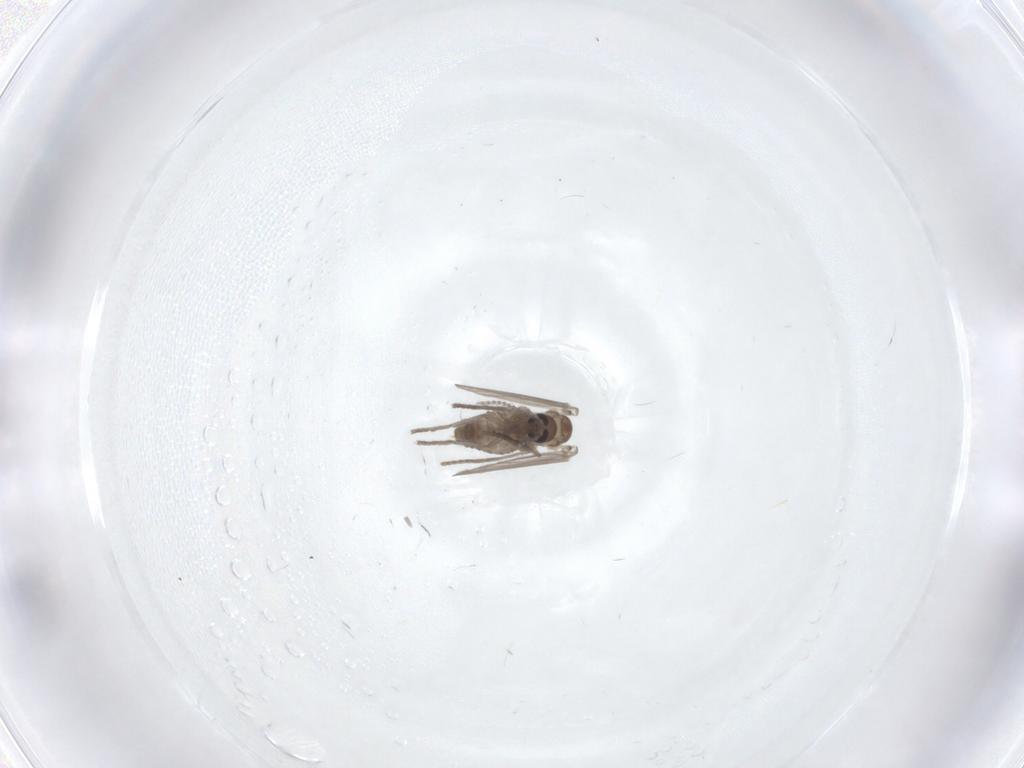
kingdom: Animalia
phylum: Arthropoda
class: Insecta
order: Diptera
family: Psychodidae
